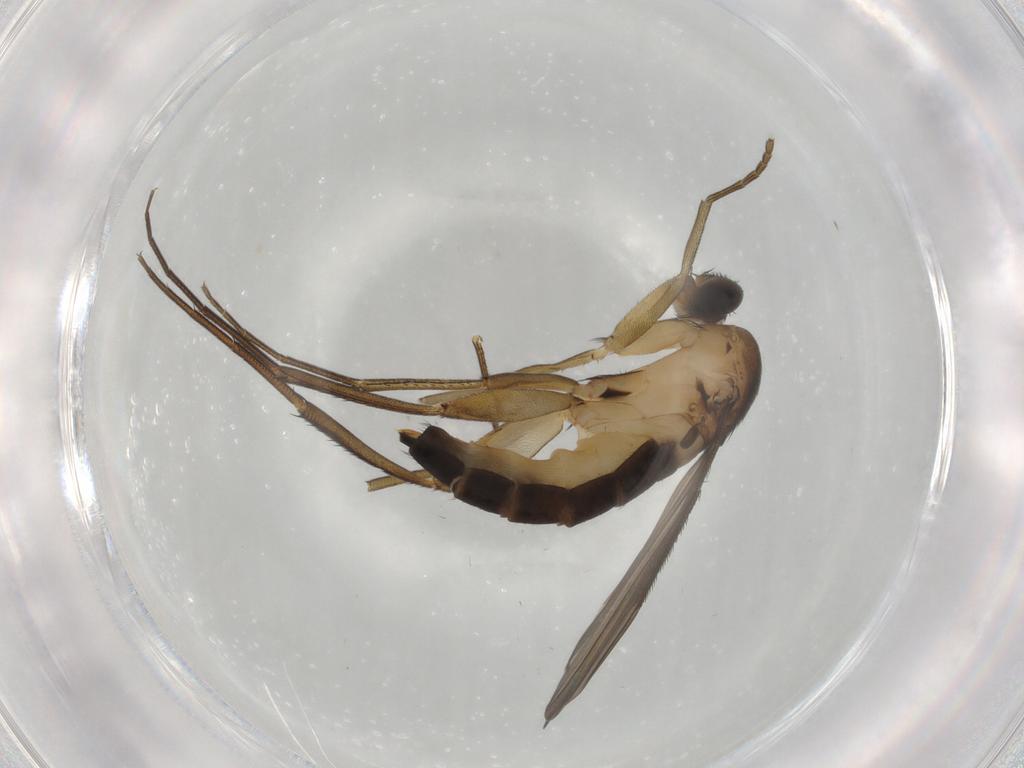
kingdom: Animalia
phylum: Arthropoda
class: Insecta
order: Diptera
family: Phoridae
